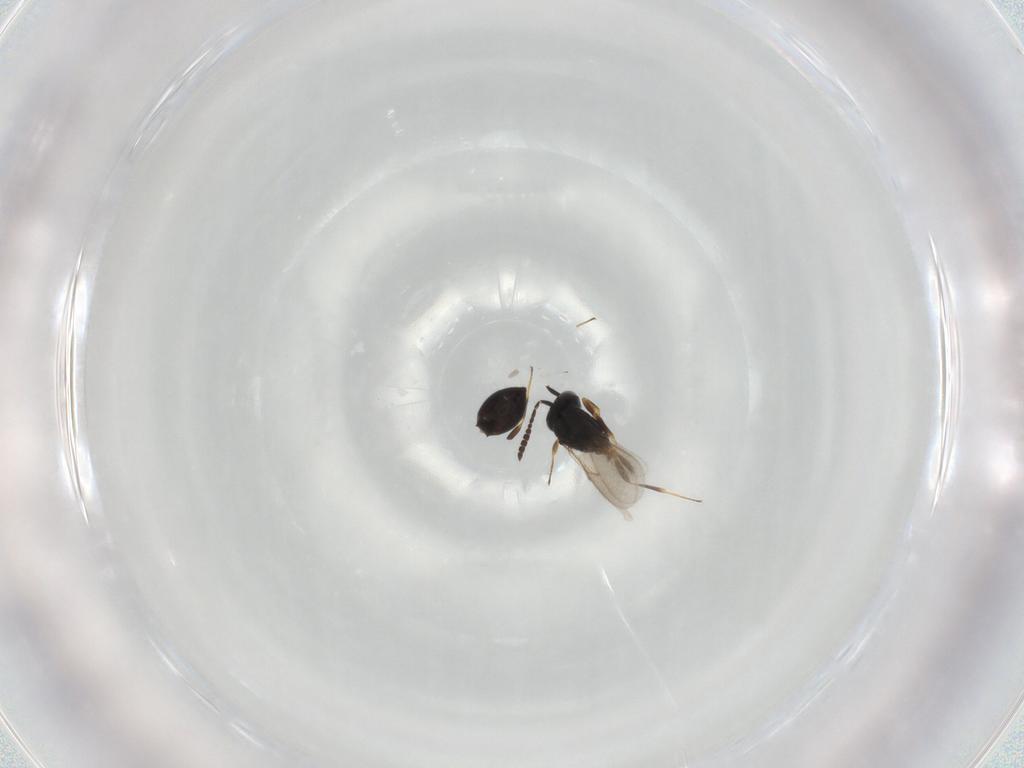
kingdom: Animalia
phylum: Arthropoda
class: Insecta
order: Hymenoptera
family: Scelionidae
